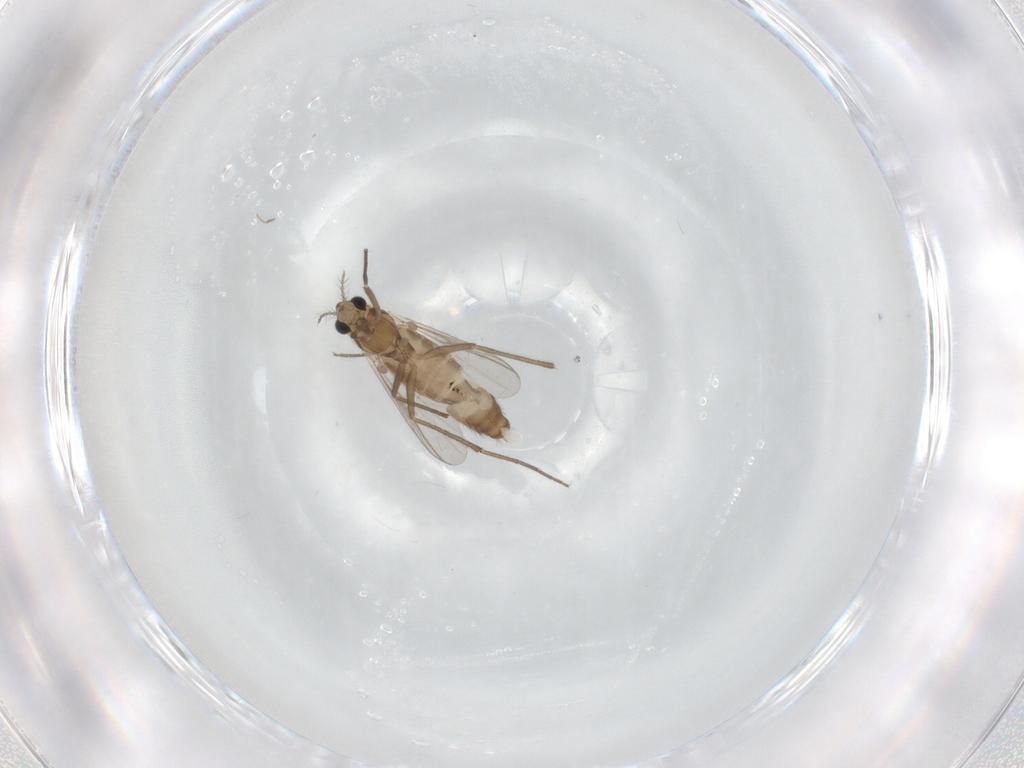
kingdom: Animalia
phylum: Arthropoda
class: Insecta
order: Diptera
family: Chironomidae
